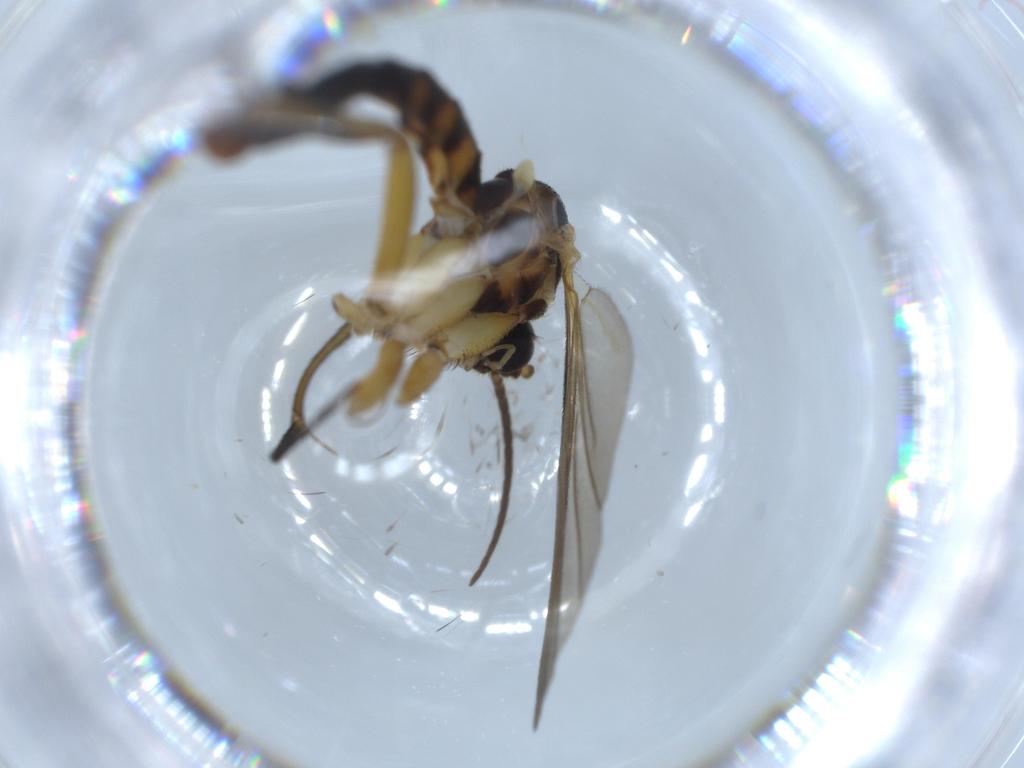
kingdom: Animalia
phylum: Arthropoda
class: Insecta
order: Diptera
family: Mycetophilidae
